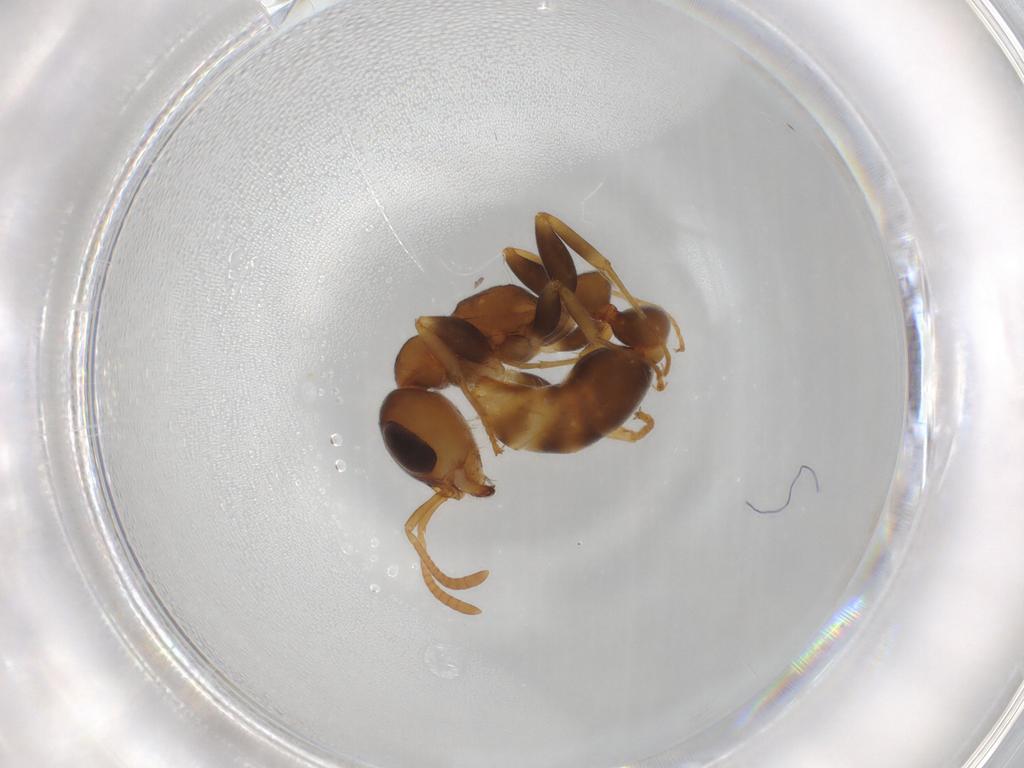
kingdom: Animalia
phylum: Arthropoda
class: Insecta
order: Hymenoptera
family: Formicidae
